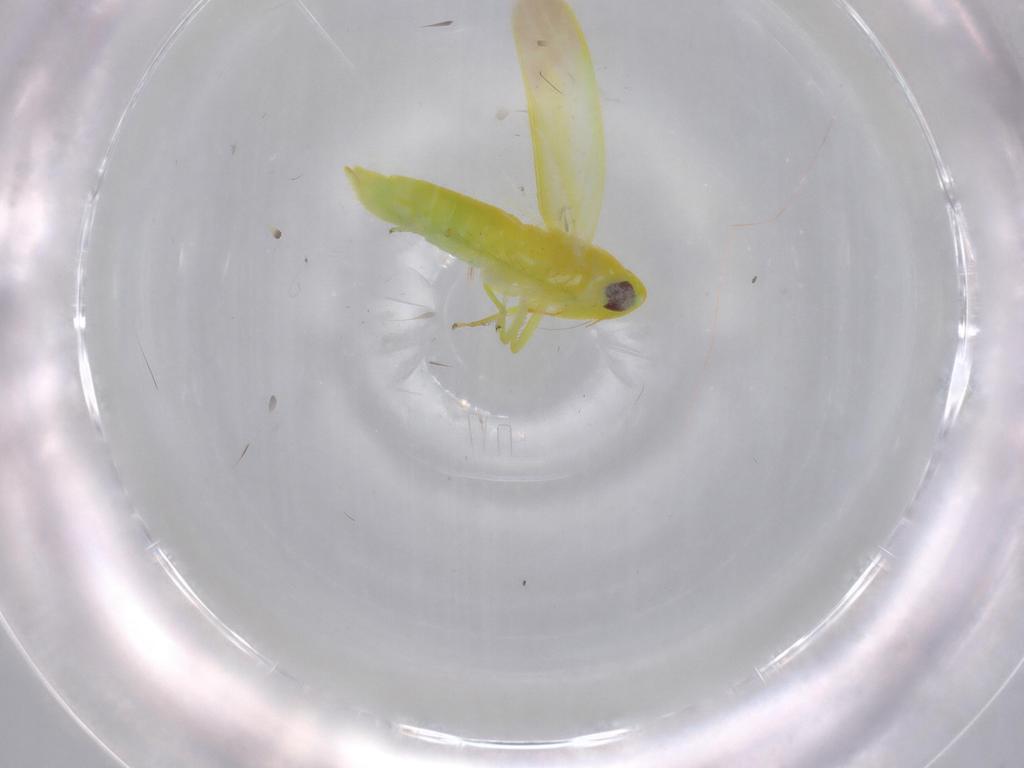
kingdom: Animalia
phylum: Arthropoda
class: Insecta
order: Hemiptera
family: Cicadellidae
